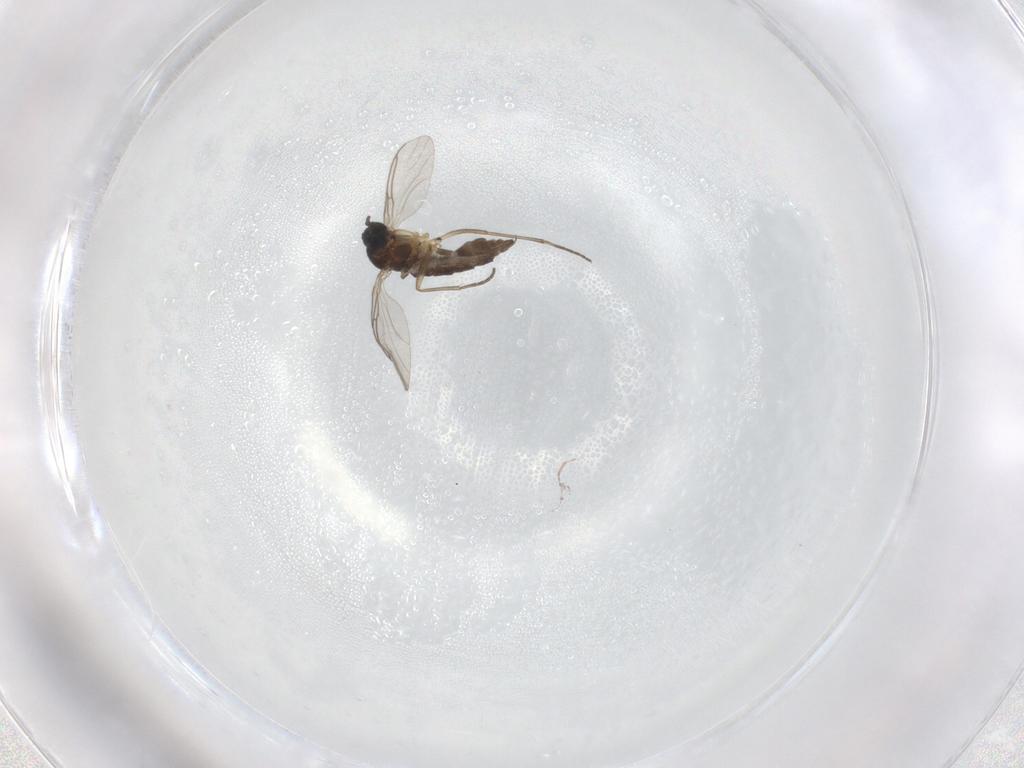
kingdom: Animalia
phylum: Arthropoda
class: Insecta
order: Diptera
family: Sciaridae
